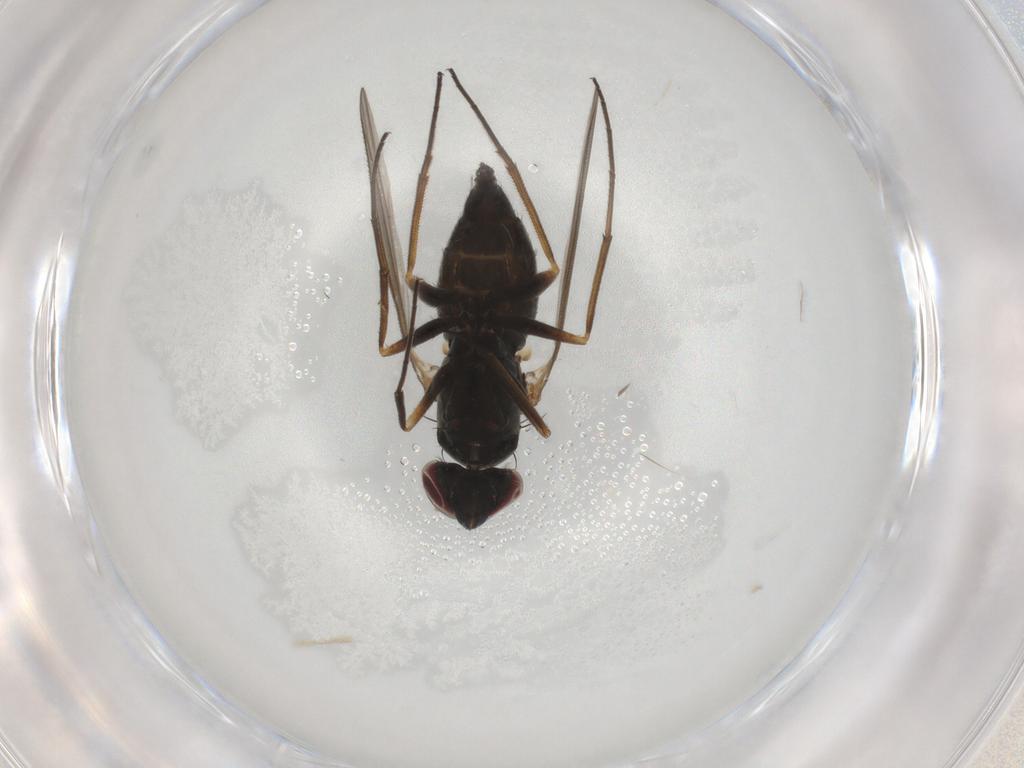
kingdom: Animalia
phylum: Arthropoda
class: Insecta
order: Diptera
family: Dolichopodidae
